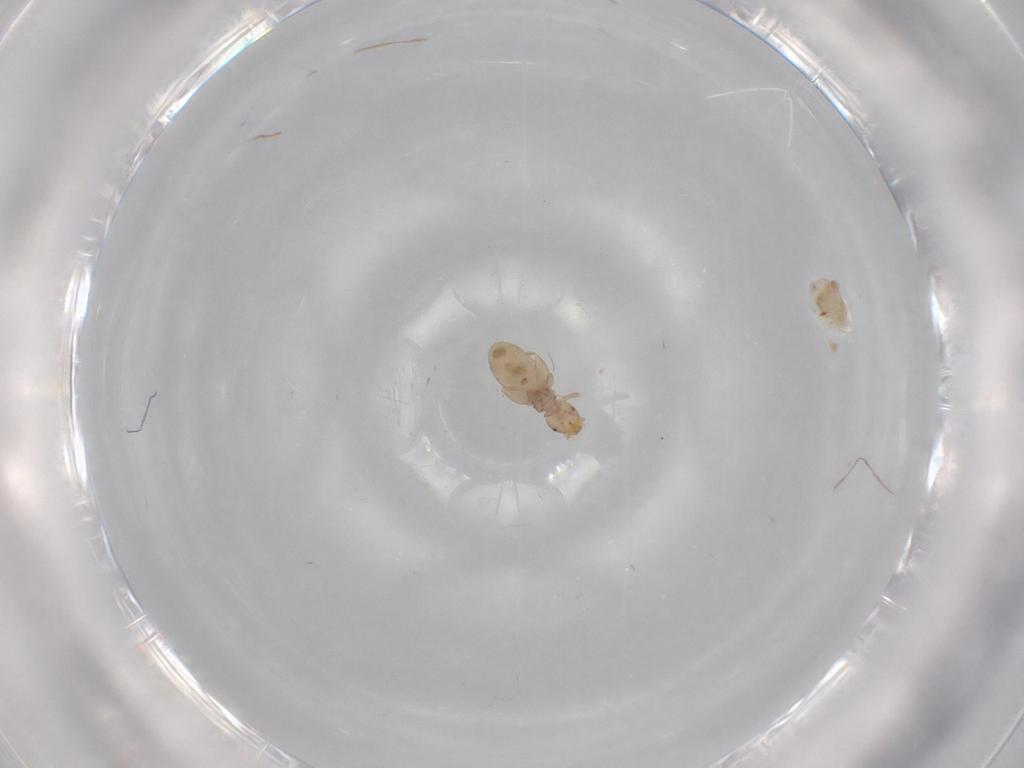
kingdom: Animalia
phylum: Arthropoda
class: Insecta
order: Psocodea
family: Liposcelididae
